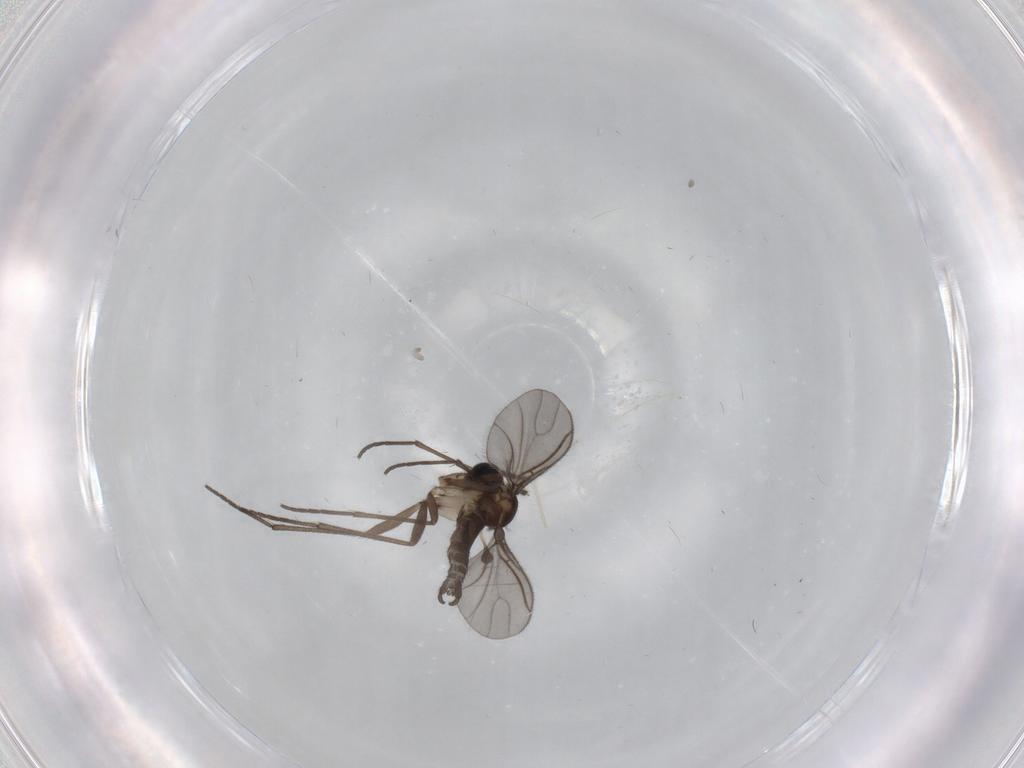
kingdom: Animalia
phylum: Arthropoda
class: Insecta
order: Diptera
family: Sciaridae
